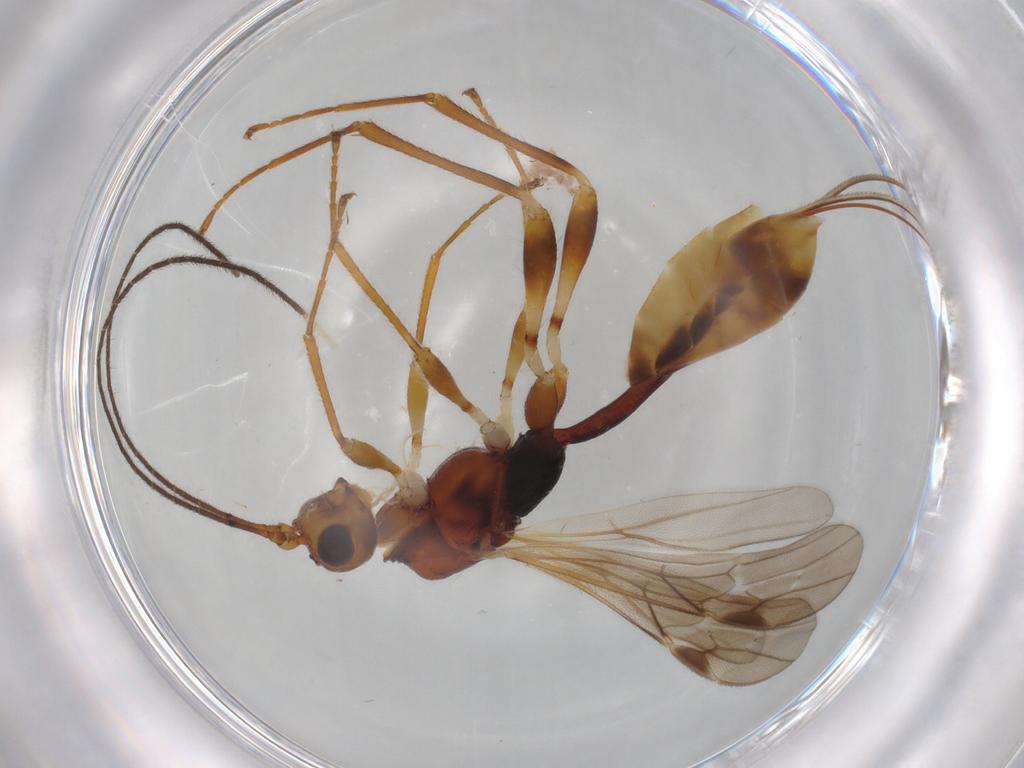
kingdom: Animalia
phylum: Arthropoda
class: Insecta
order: Hymenoptera
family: Braconidae
